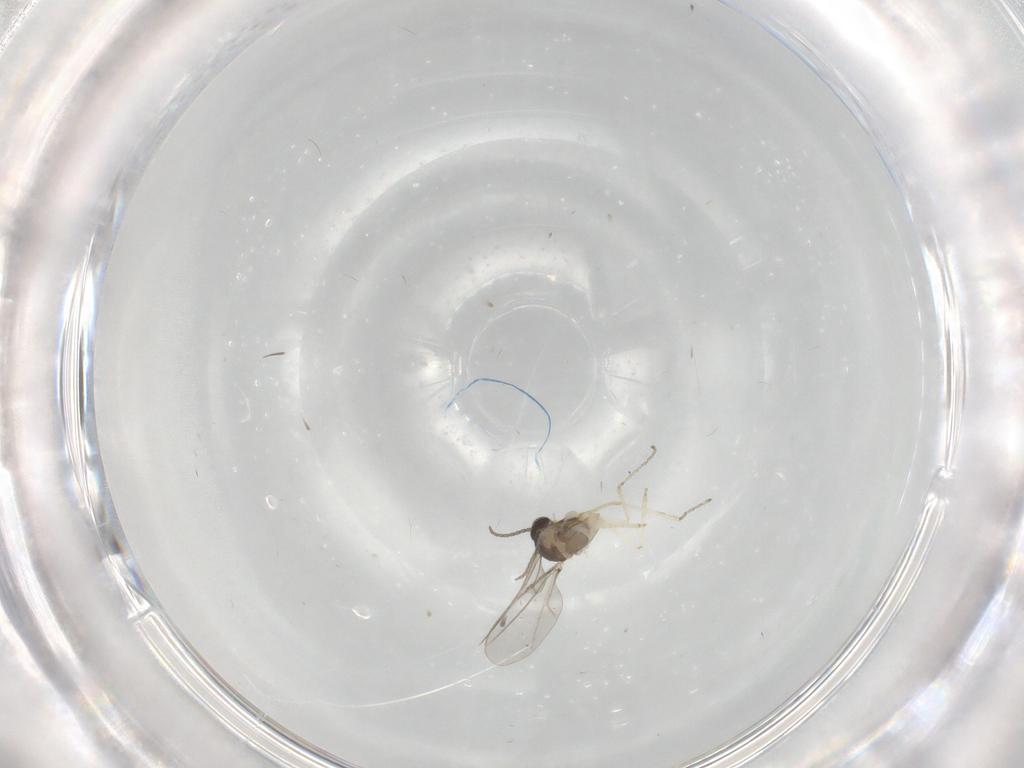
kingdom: Animalia
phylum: Arthropoda
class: Insecta
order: Diptera
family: Cecidomyiidae
